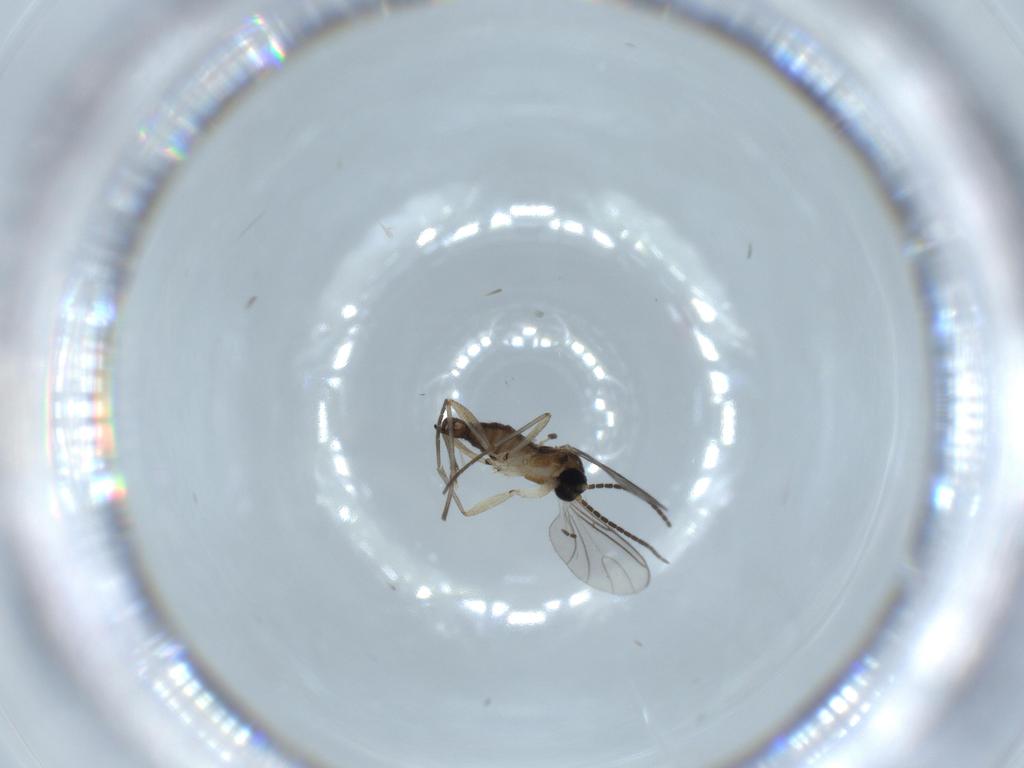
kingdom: Animalia
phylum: Arthropoda
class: Insecta
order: Diptera
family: Sciaridae
